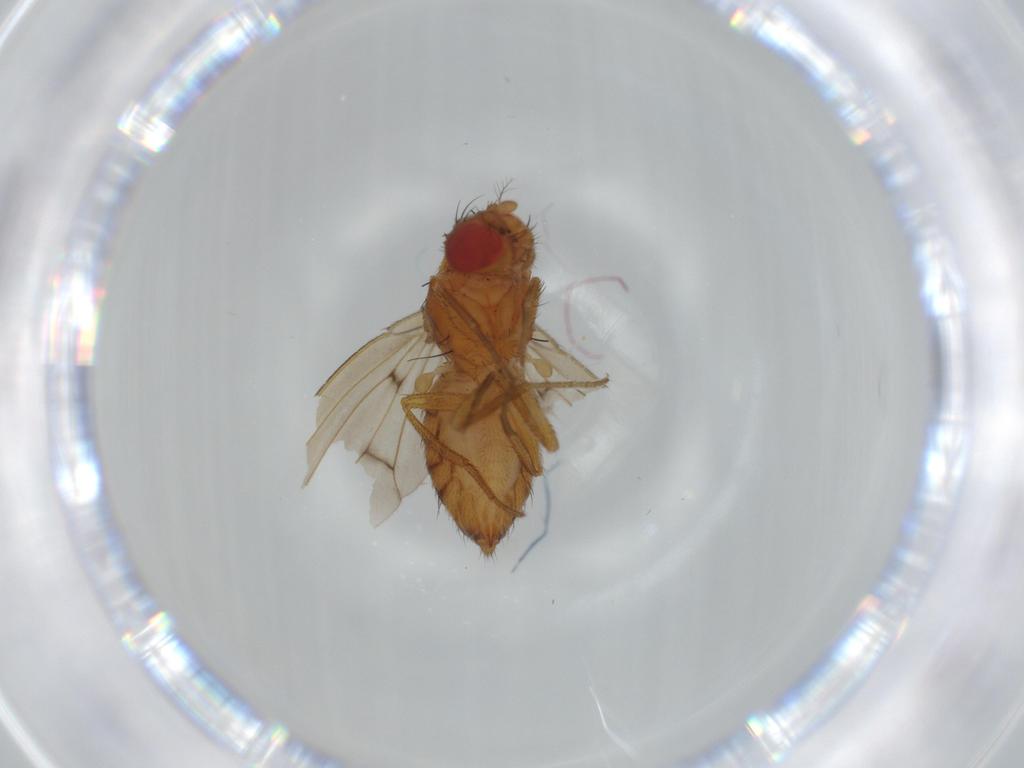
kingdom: Animalia
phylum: Arthropoda
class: Insecta
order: Diptera
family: Drosophilidae
